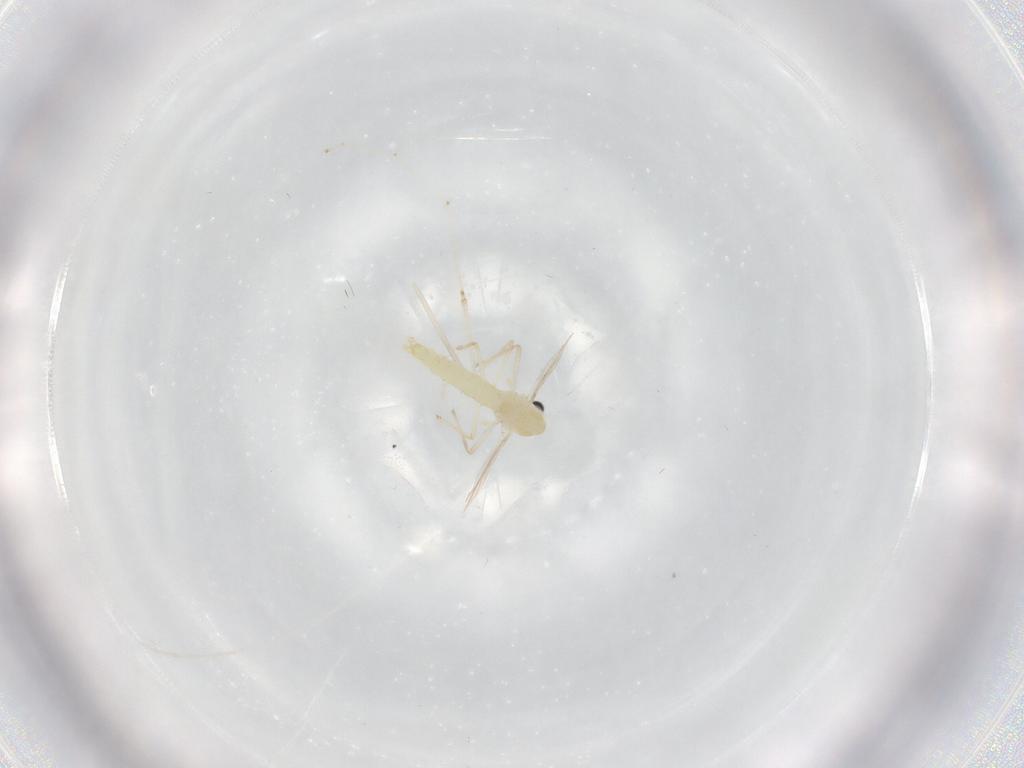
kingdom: Animalia
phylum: Arthropoda
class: Insecta
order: Diptera
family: Chironomidae
